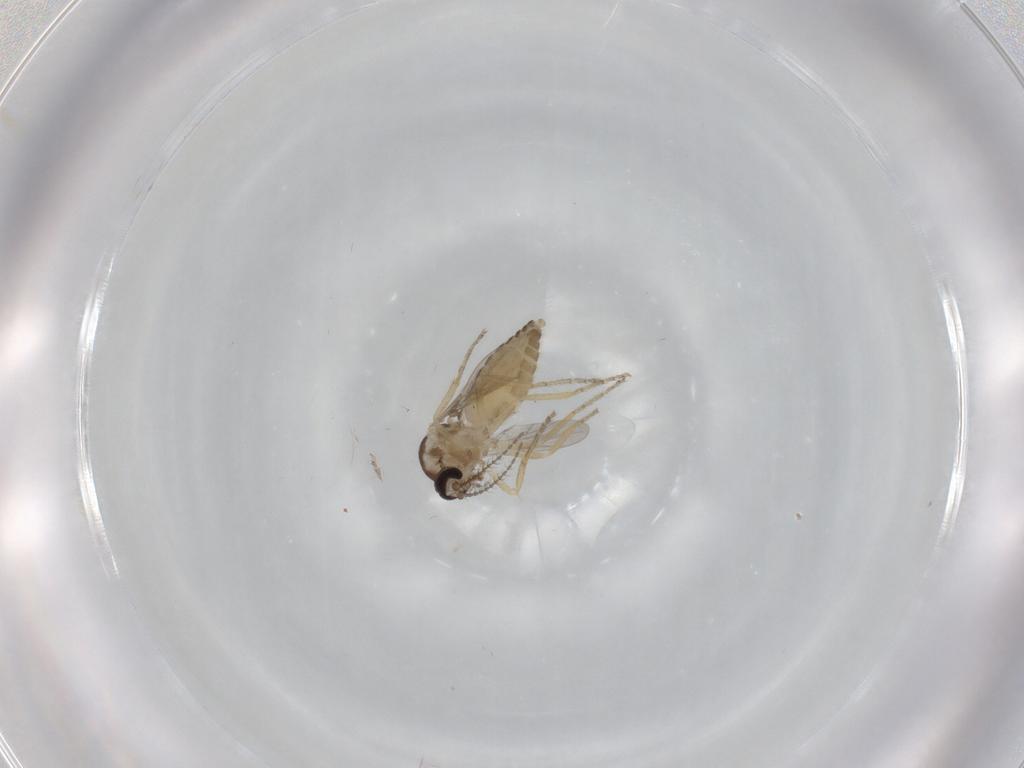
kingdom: Animalia
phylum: Arthropoda
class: Insecta
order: Diptera
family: Ceratopogonidae
